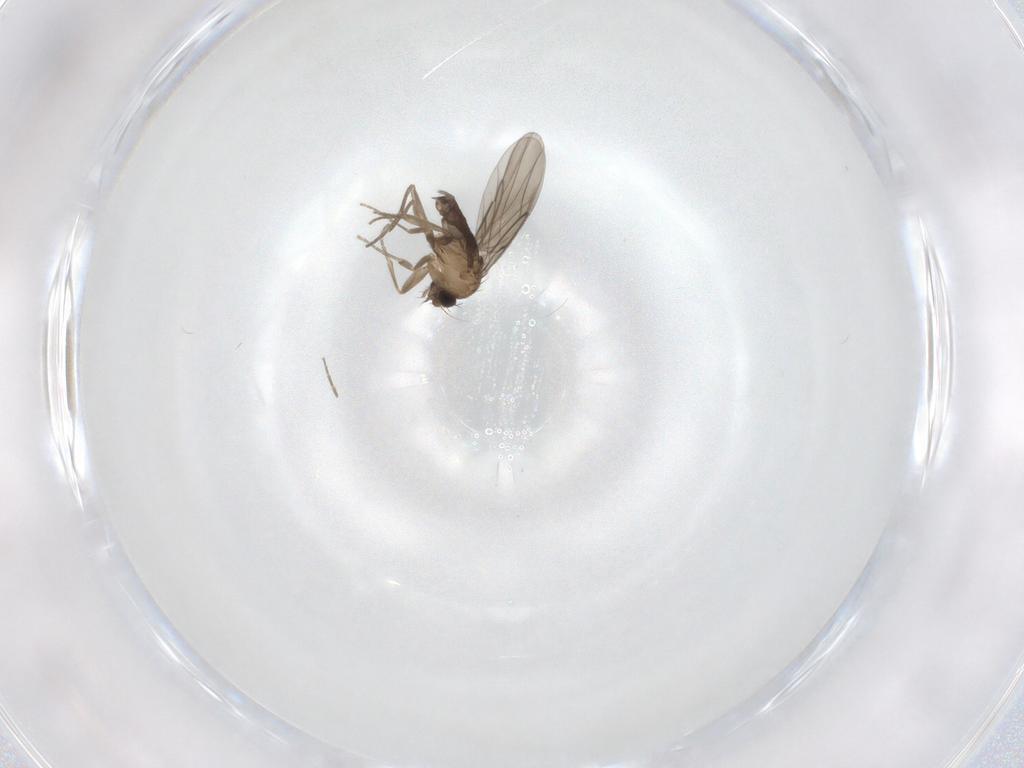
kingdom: Animalia
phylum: Arthropoda
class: Insecta
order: Diptera
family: Phoridae
